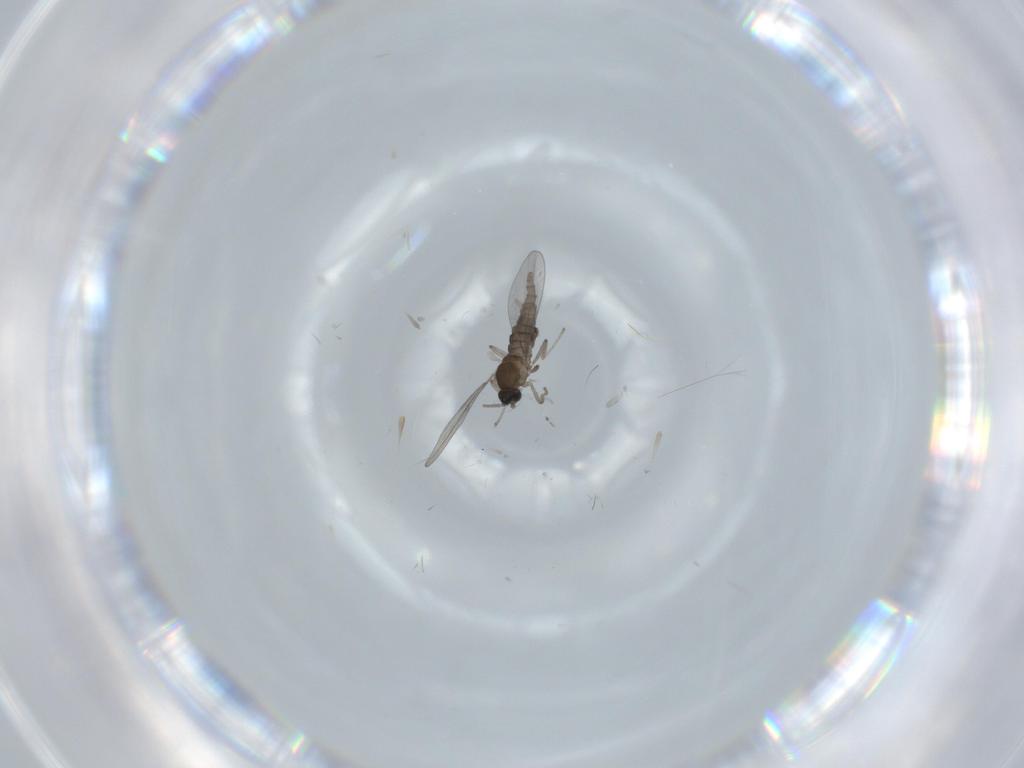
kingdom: Animalia
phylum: Arthropoda
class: Insecta
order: Diptera
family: Cecidomyiidae
